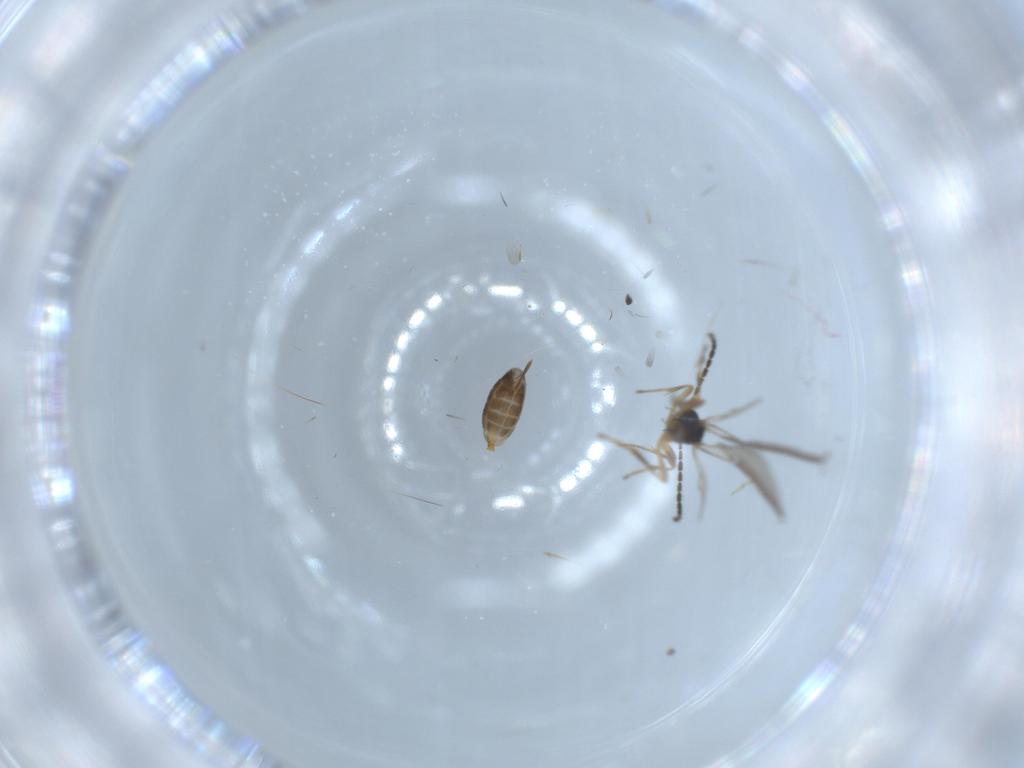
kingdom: Animalia
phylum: Arthropoda
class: Insecta
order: Hymenoptera
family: Braconidae
